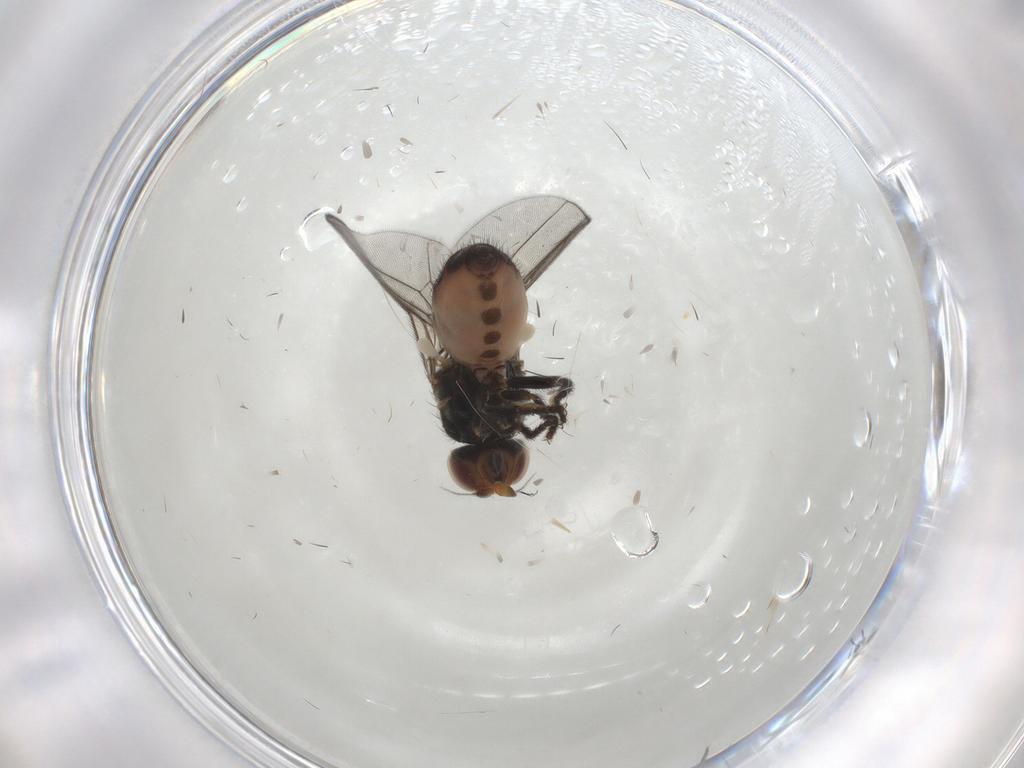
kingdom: Animalia
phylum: Arthropoda
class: Insecta
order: Diptera
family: Chloropidae
